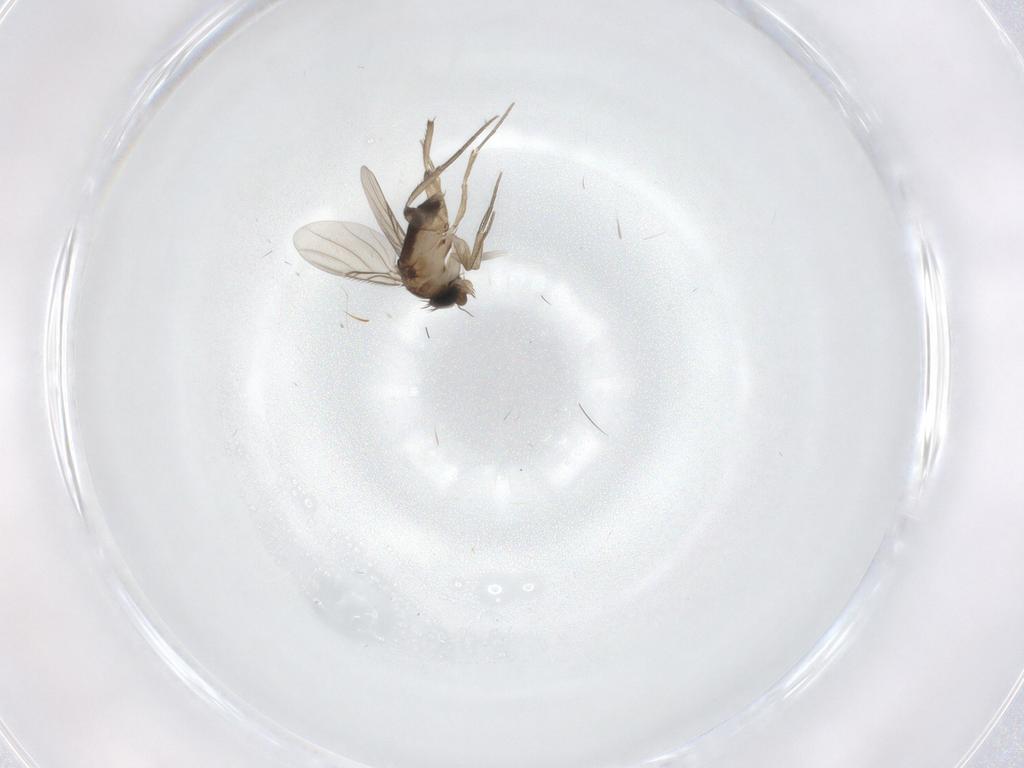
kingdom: Animalia
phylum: Arthropoda
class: Insecta
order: Diptera
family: Phoridae
